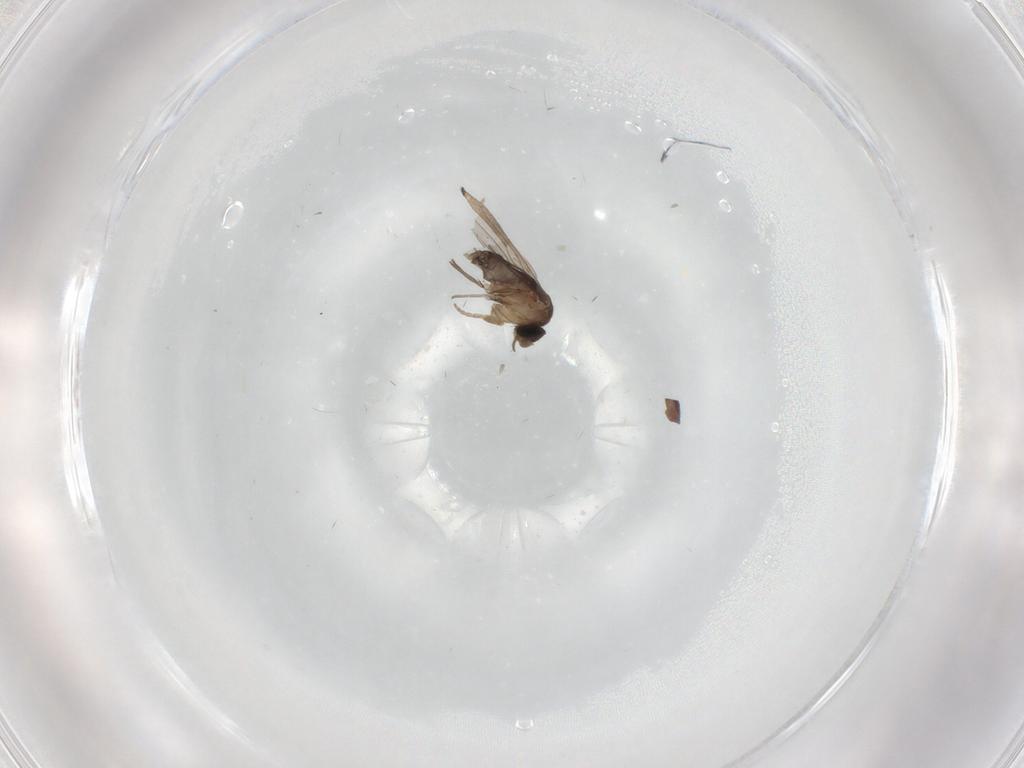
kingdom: Animalia
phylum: Arthropoda
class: Insecta
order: Diptera
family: Phoridae
